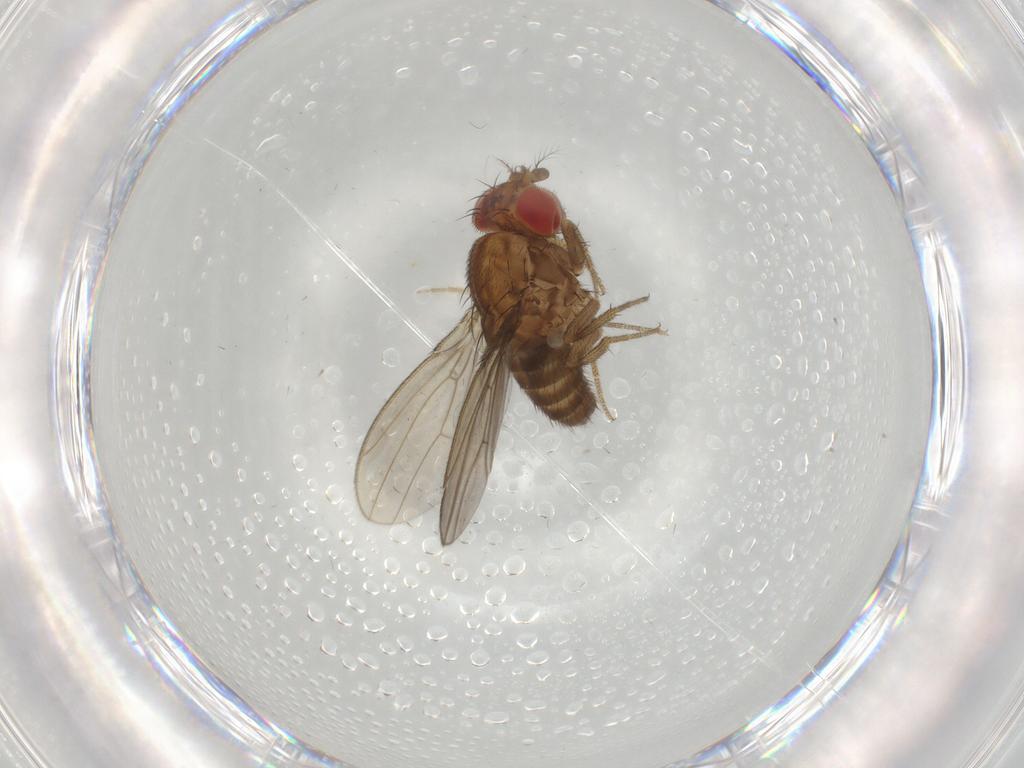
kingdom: Animalia
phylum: Arthropoda
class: Insecta
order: Diptera
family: Drosophilidae
